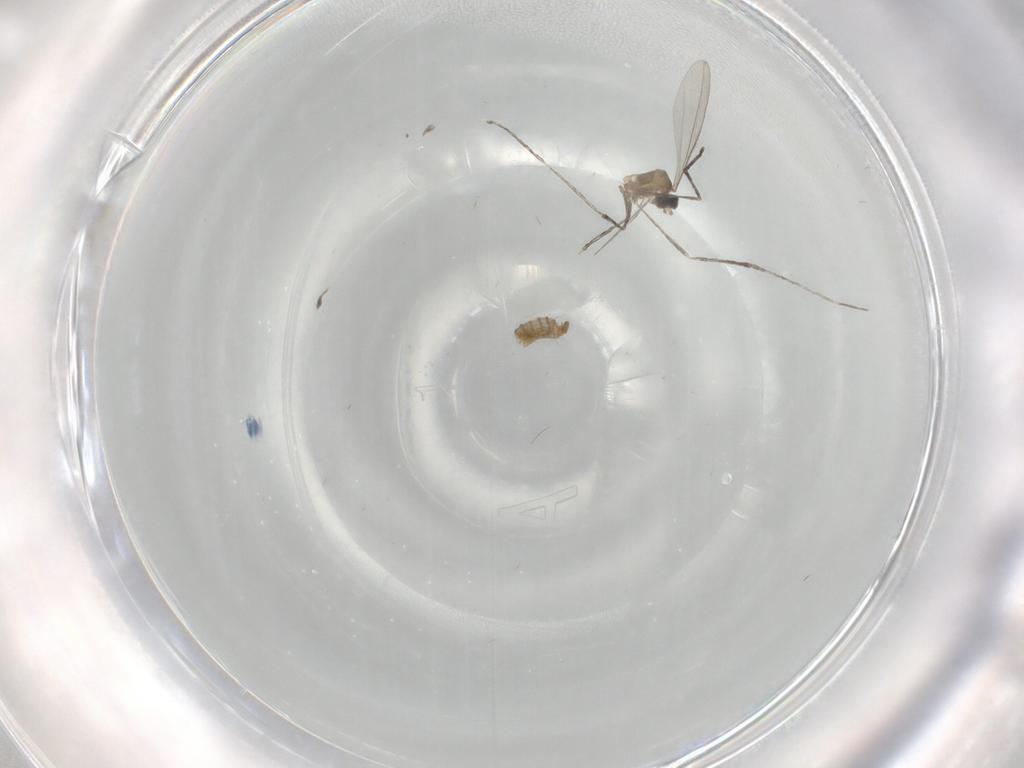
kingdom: Animalia
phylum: Arthropoda
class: Insecta
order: Diptera
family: Cecidomyiidae
